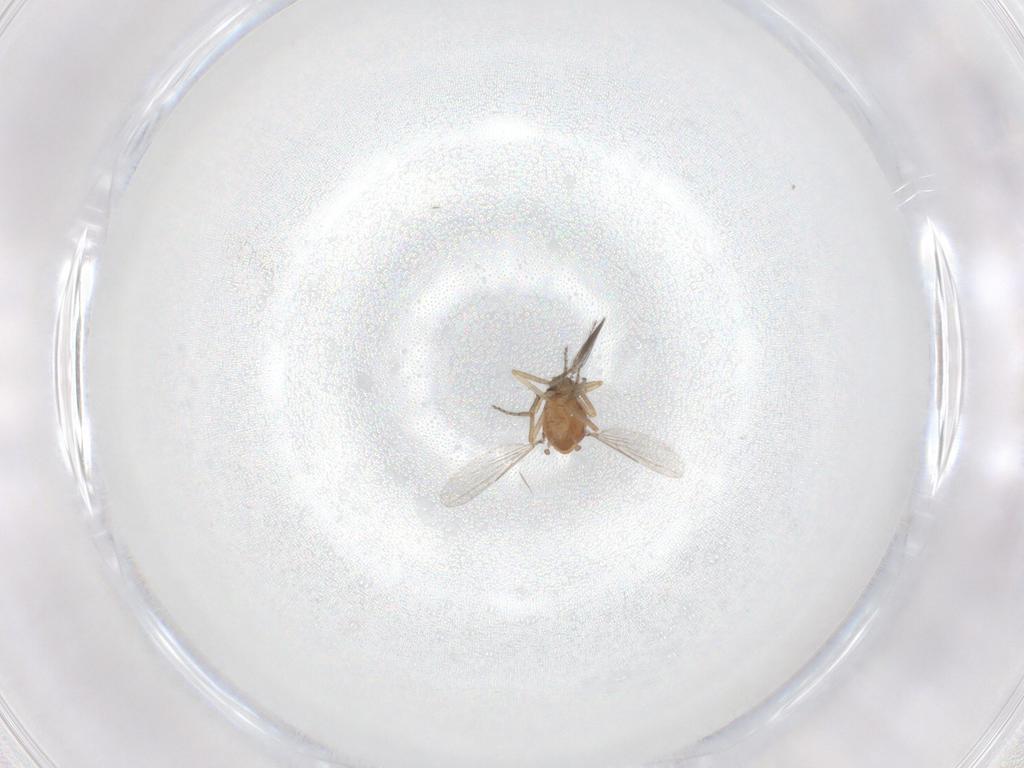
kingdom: Animalia
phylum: Arthropoda
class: Insecta
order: Diptera
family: Ceratopogonidae
